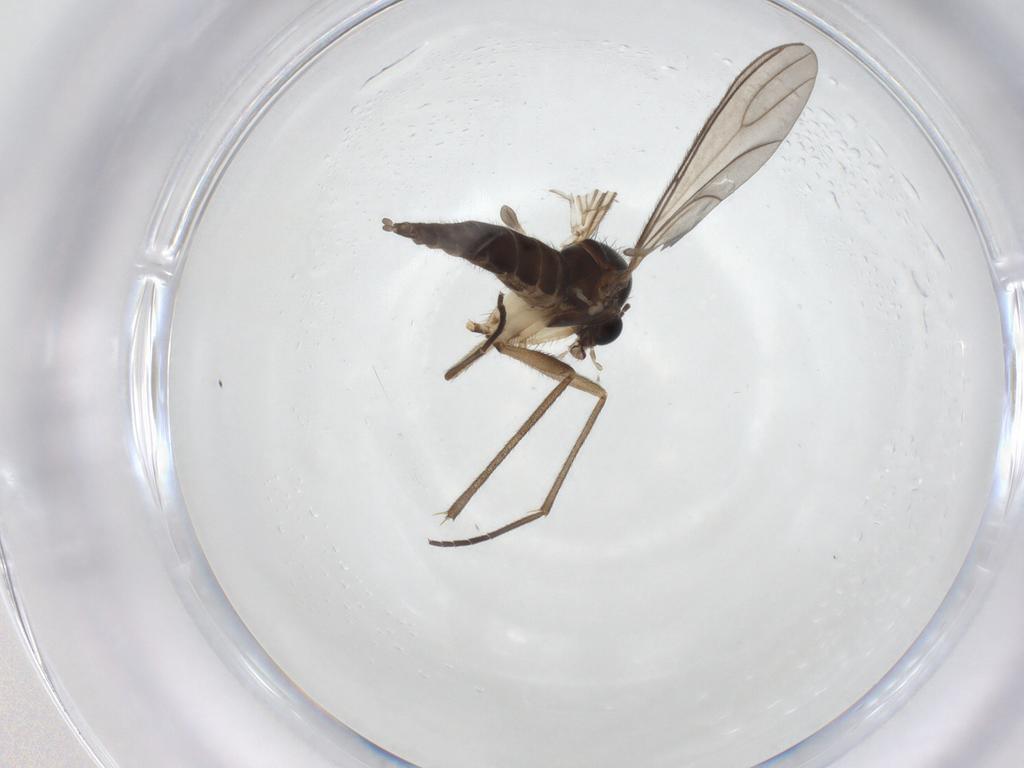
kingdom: Animalia
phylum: Arthropoda
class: Insecta
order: Diptera
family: Sciaridae
